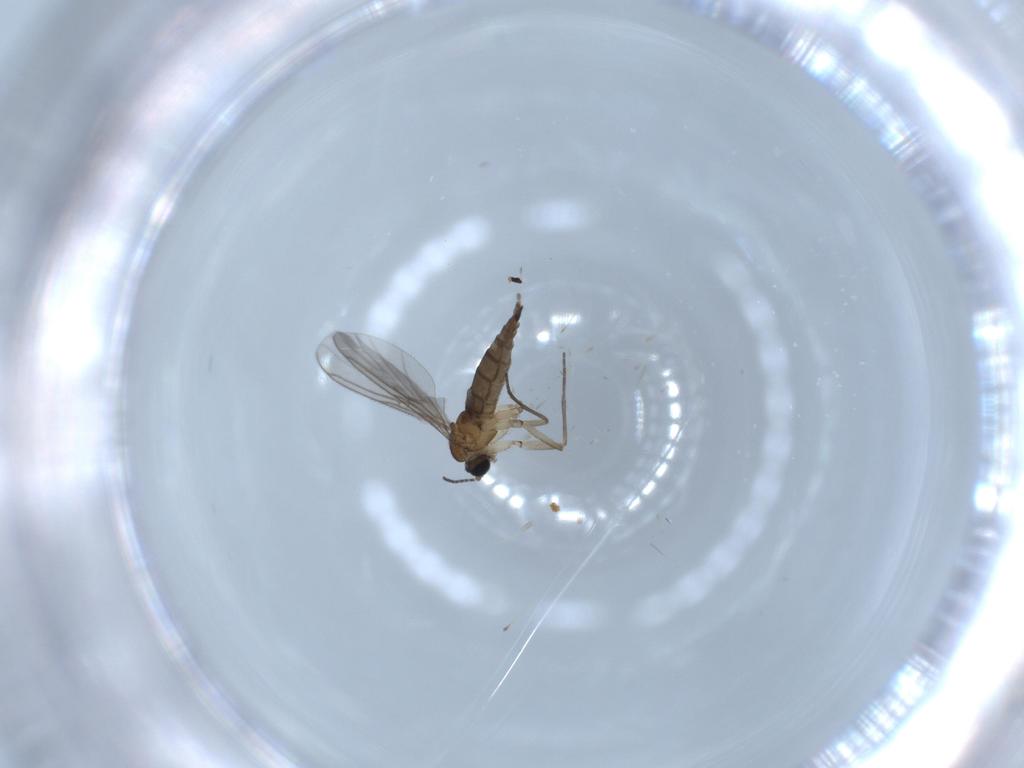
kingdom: Animalia
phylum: Arthropoda
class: Insecta
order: Diptera
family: Sciaridae
